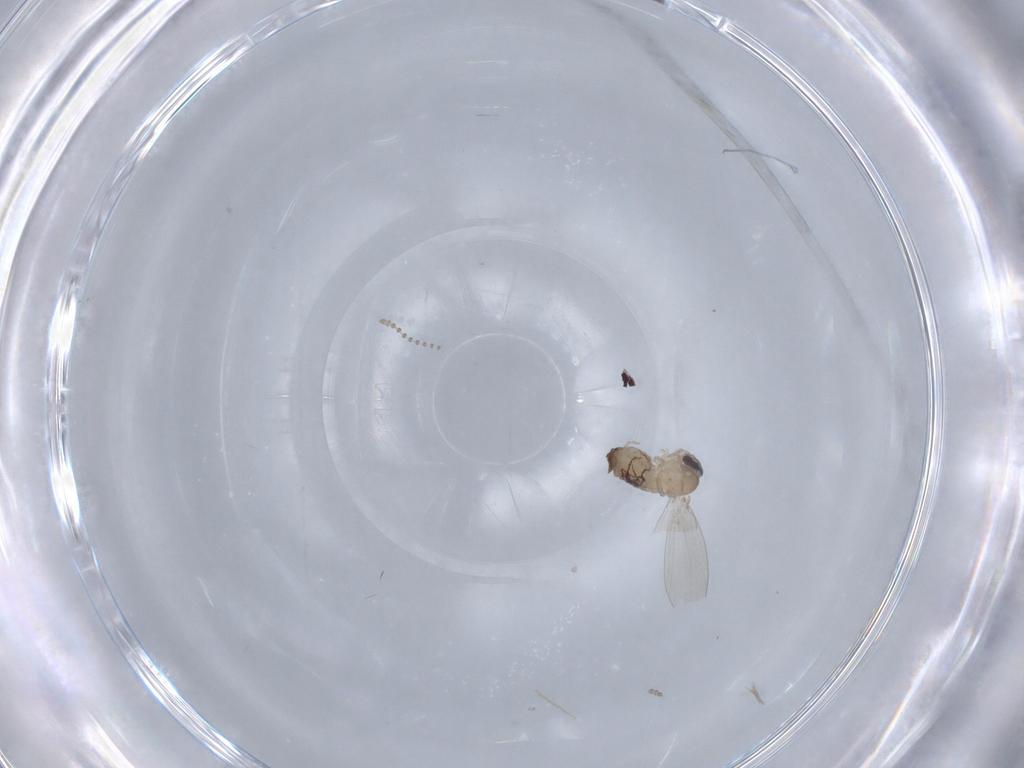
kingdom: Animalia
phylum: Arthropoda
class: Insecta
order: Diptera
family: Psychodidae
